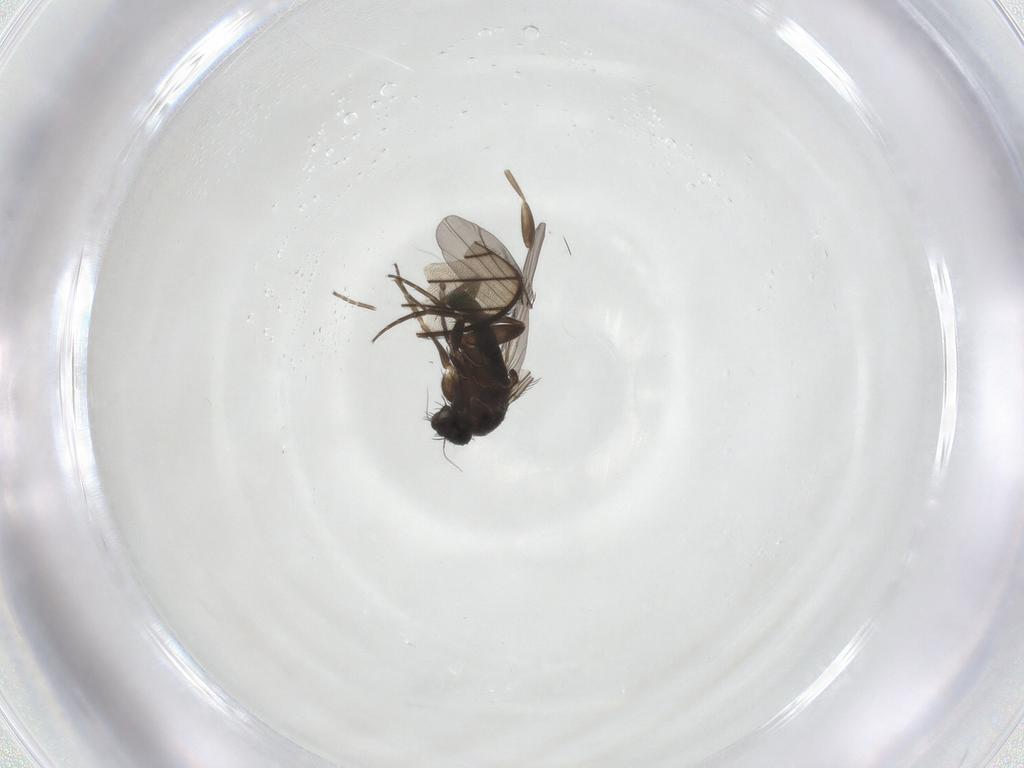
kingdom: Animalia
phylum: Arthropoda
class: Insecta
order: Diptera
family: Phoridae
